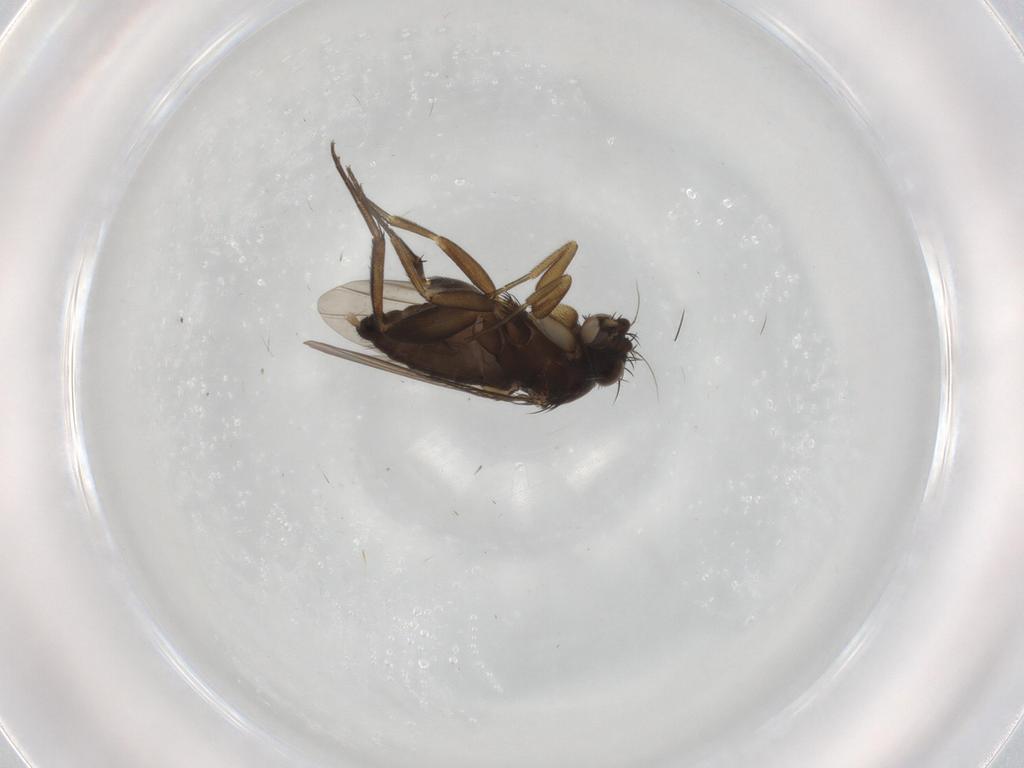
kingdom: Animalia
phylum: Arthropoda
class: Insecta
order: Diptera
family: Phoridae
